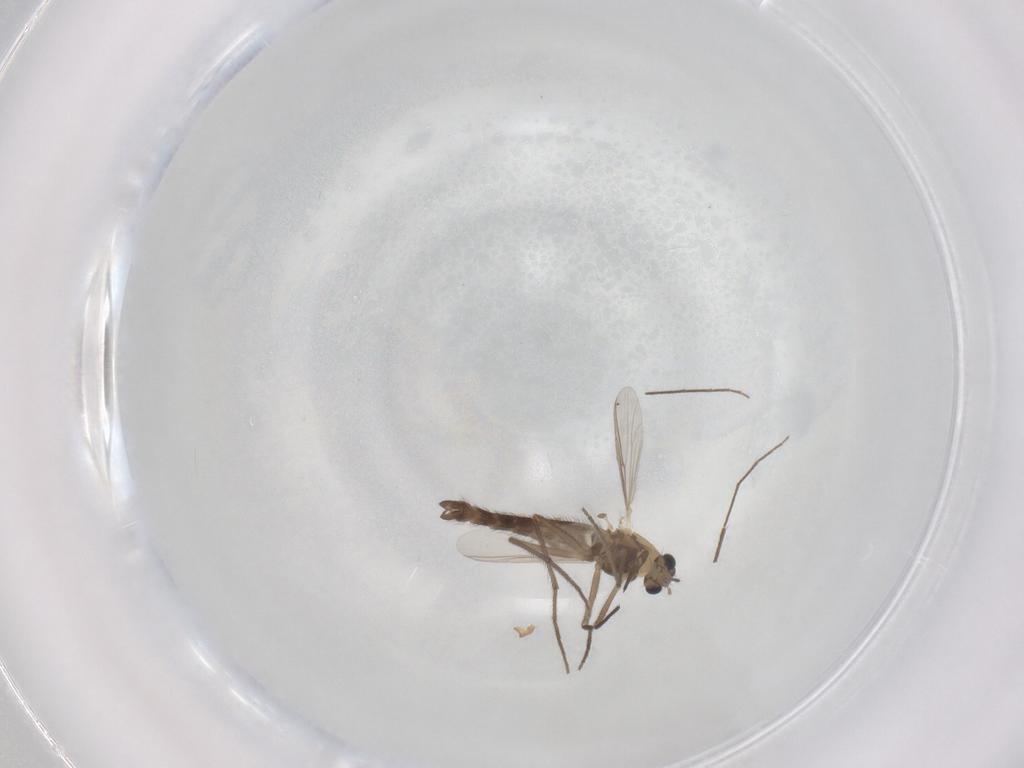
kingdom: Animalia
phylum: Arthropoda
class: Insecta
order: Diptera
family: Chironomidae
